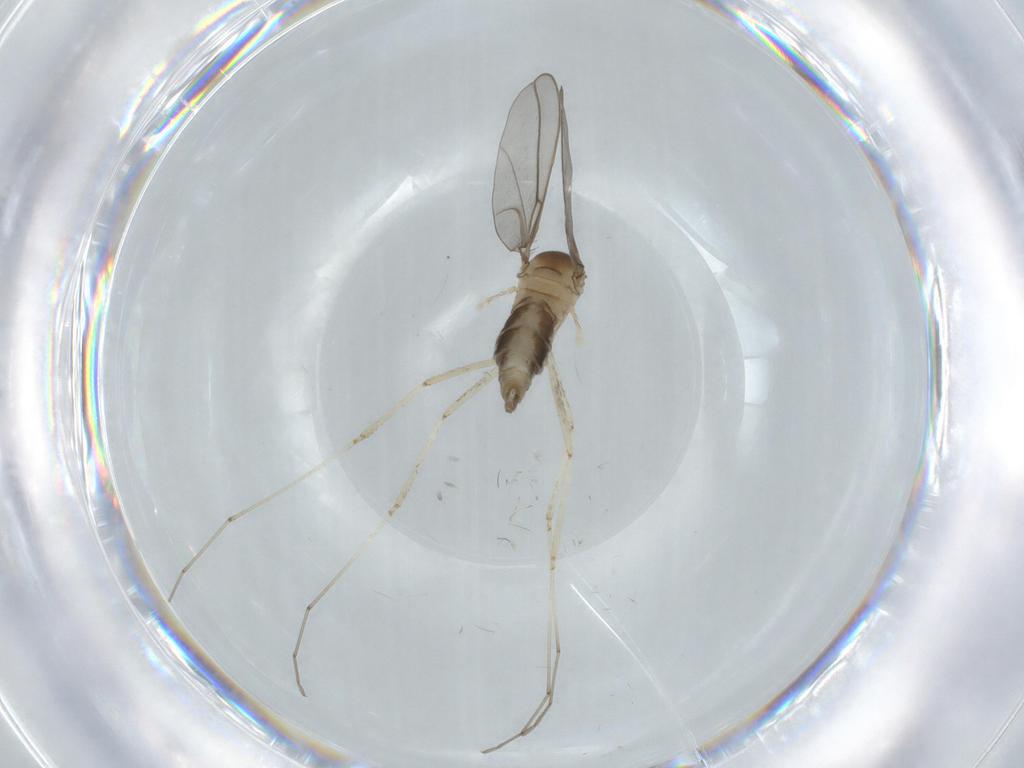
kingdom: Animalia
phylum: Arthropoda
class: Insecta
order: Diptera
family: Cecidomyiidae
